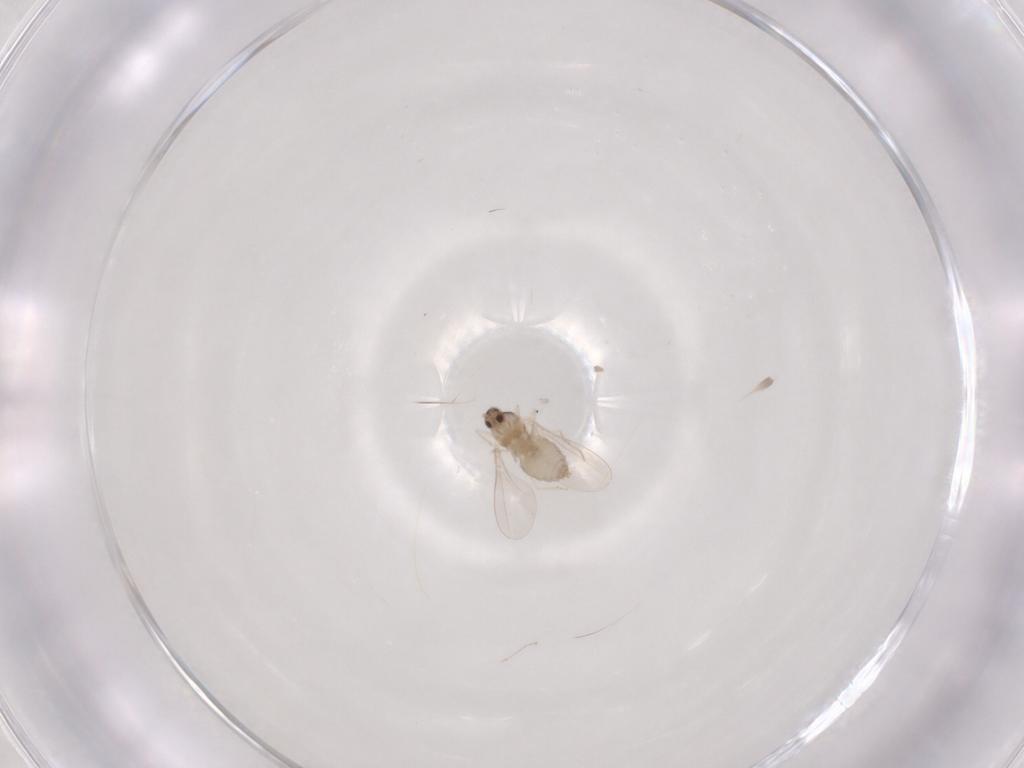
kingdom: Animalia
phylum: Arthropoda
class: Insecta
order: Diptera
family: Cecidomyiidae
